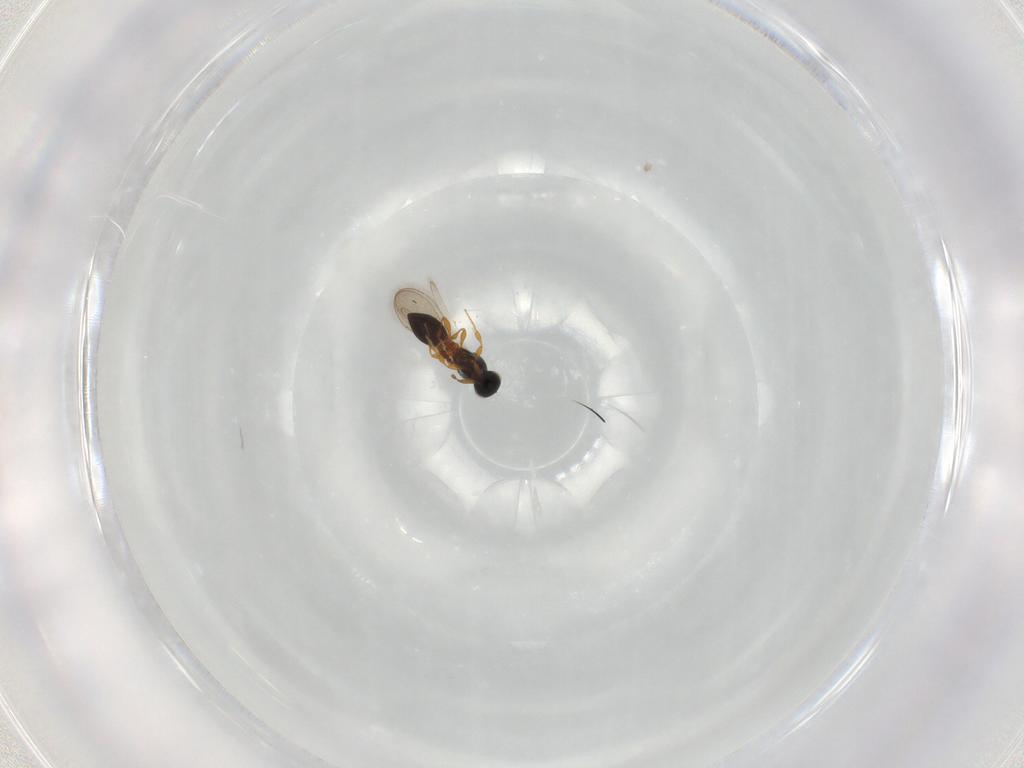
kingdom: Animalia
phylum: Arthropoda
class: Insecta
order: Hymenoptera
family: Platygastridae
